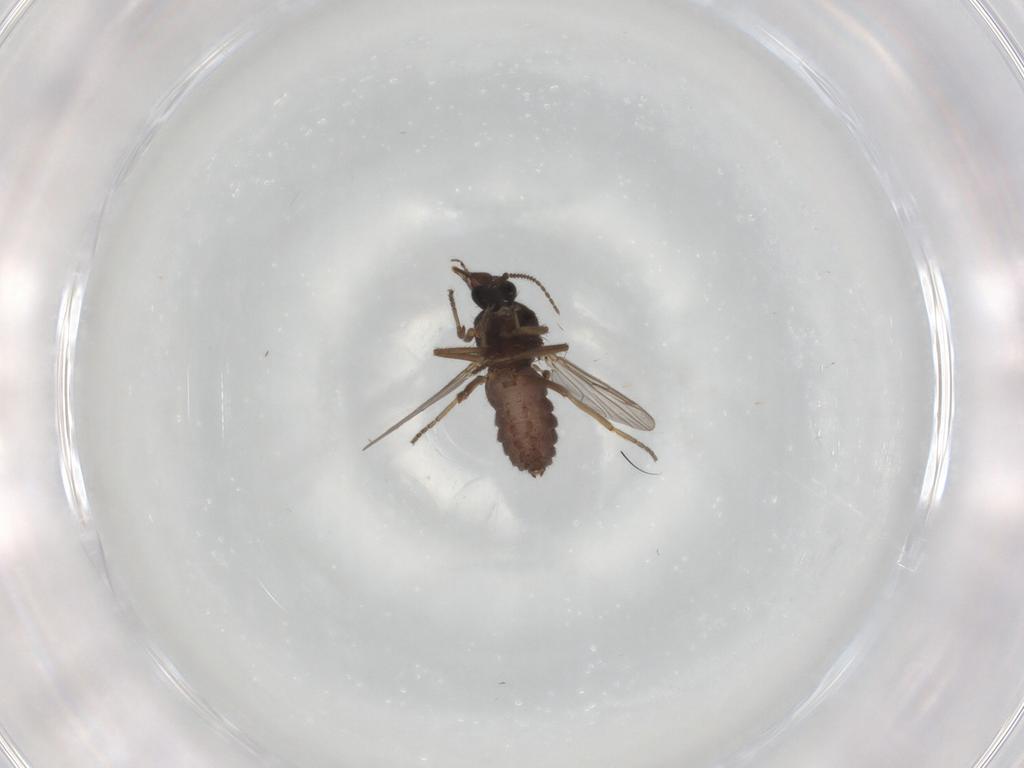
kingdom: Animalia
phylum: Arthropoda
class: Insecta
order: Diptera
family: Ceratopogonidae
